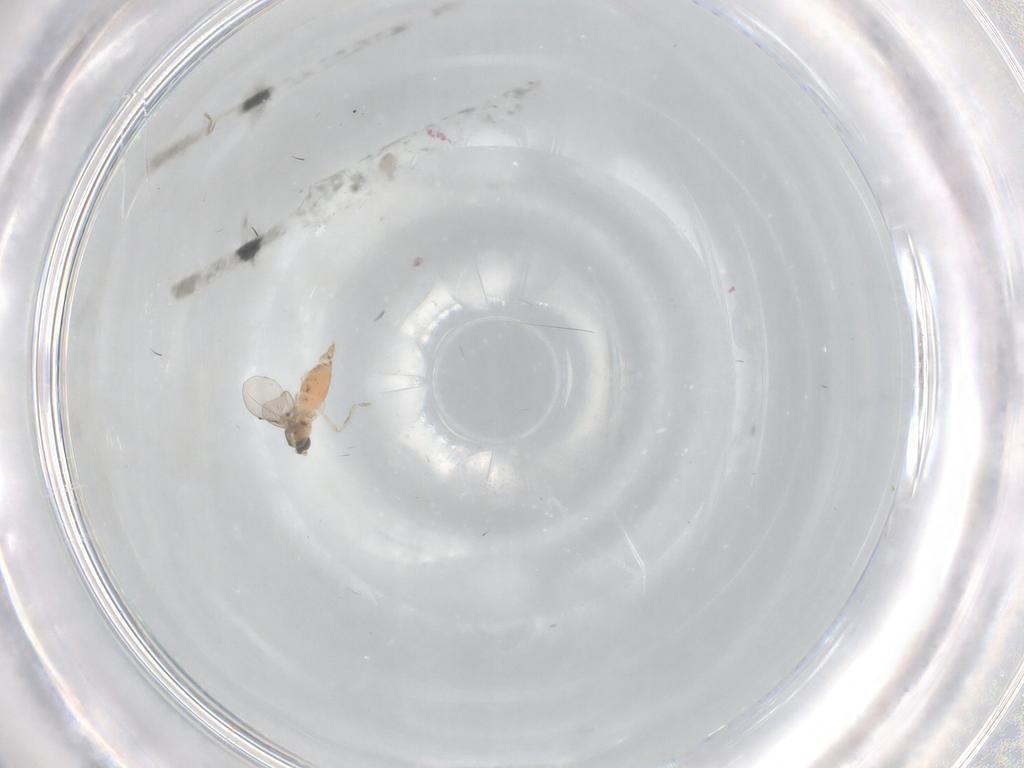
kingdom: Animalia
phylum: Arthropoda
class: Insecta
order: Diptera
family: Cecidomyiidae
